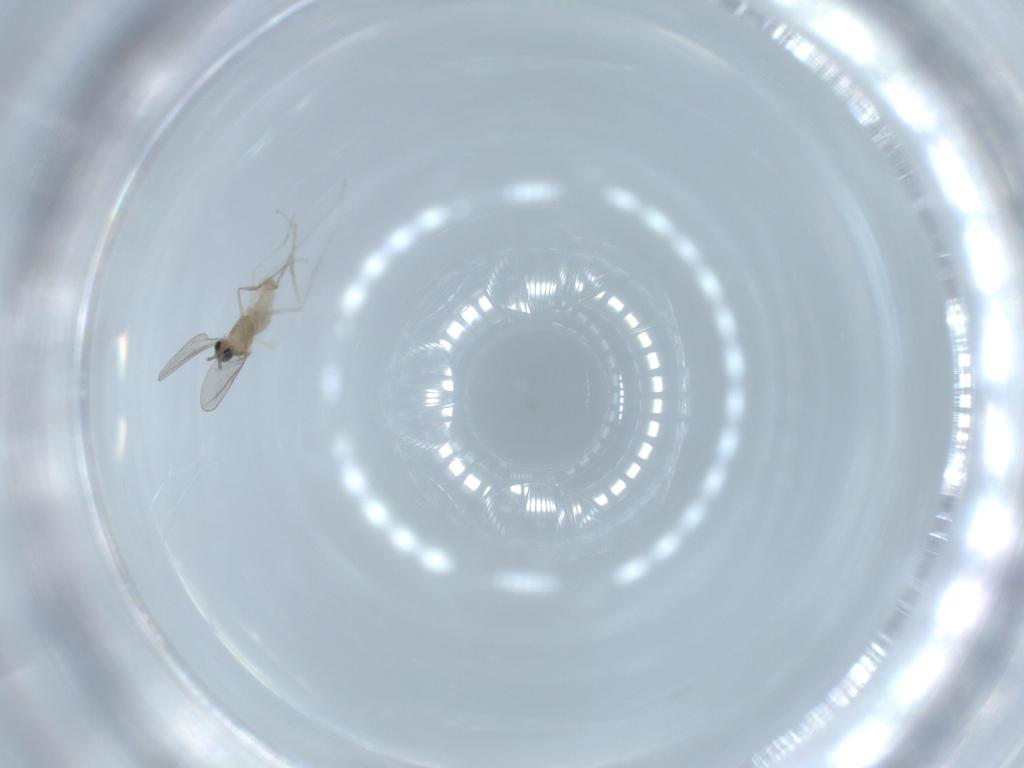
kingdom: Animalia
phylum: Arthropoda
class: Insecta
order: Diptera
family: Cecidomyiidae
